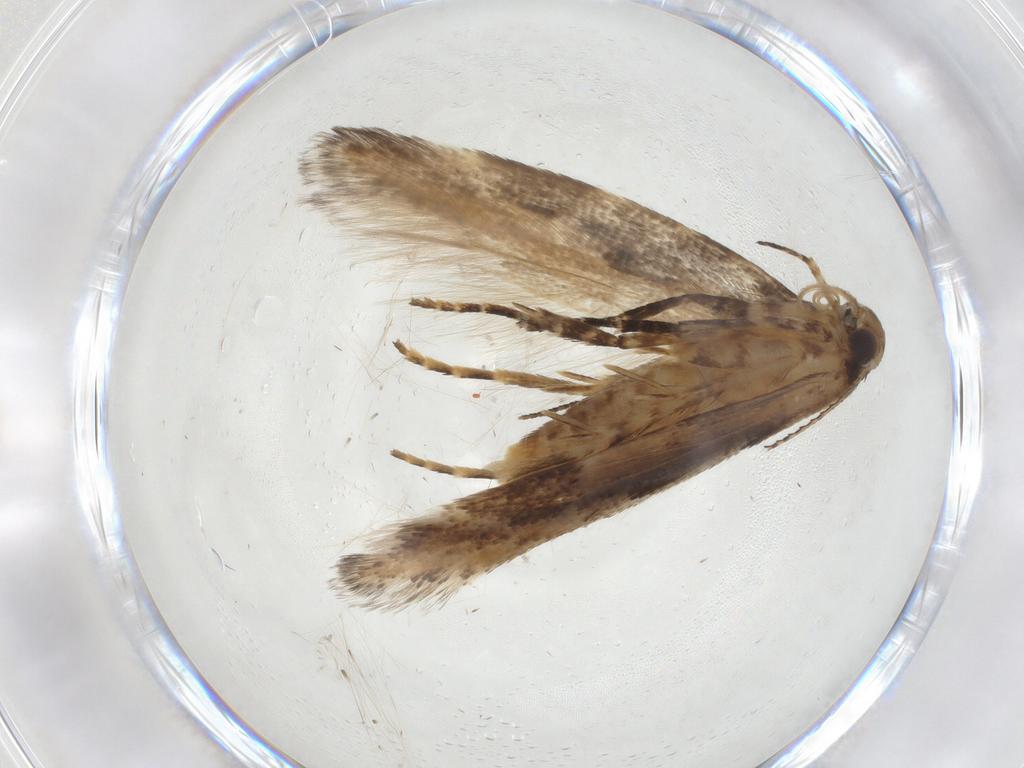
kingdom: Animalia
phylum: Arthropoda
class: Insecta
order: Lepidoptera
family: Gelechiidae
